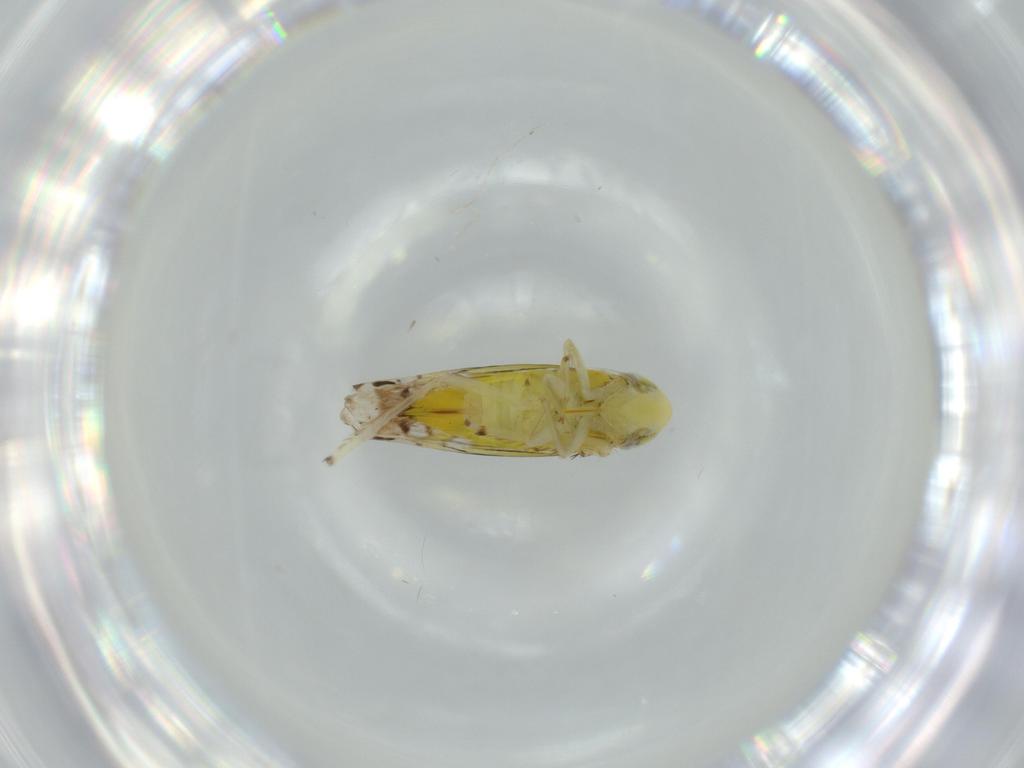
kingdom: Animalia
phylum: Arthropoda
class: Insecta
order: Hemiptera
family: Cicadellidae
